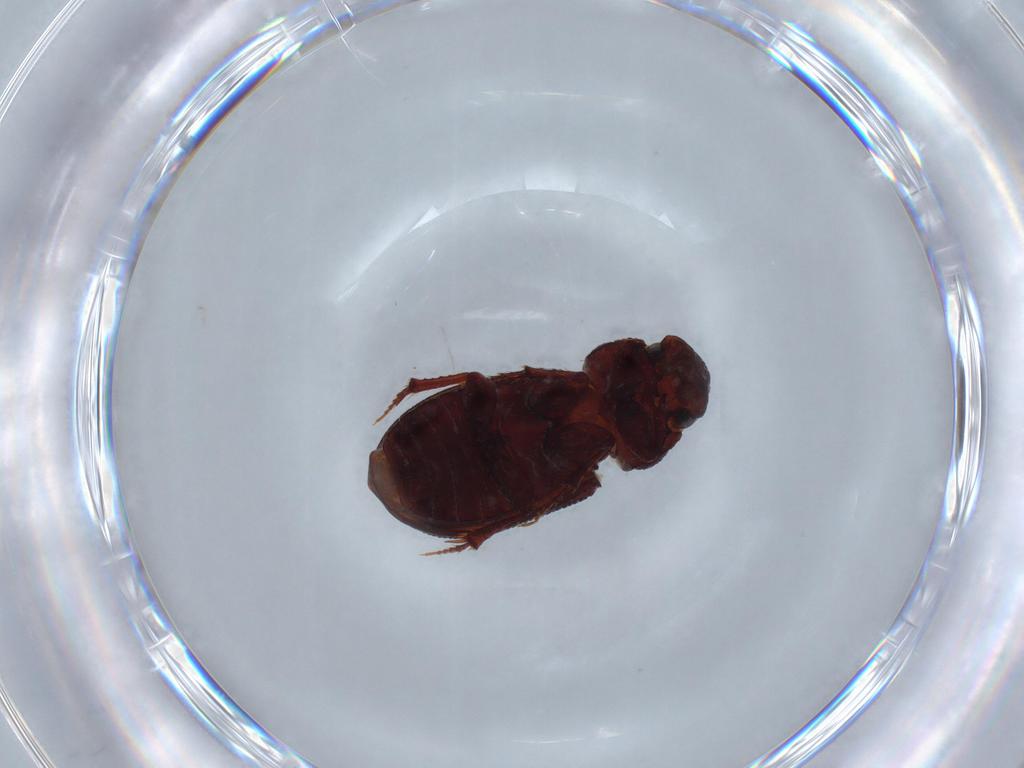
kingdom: Animalia
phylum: Arthropoda
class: Insecta
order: Coleoptera
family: Scarabaeidae
